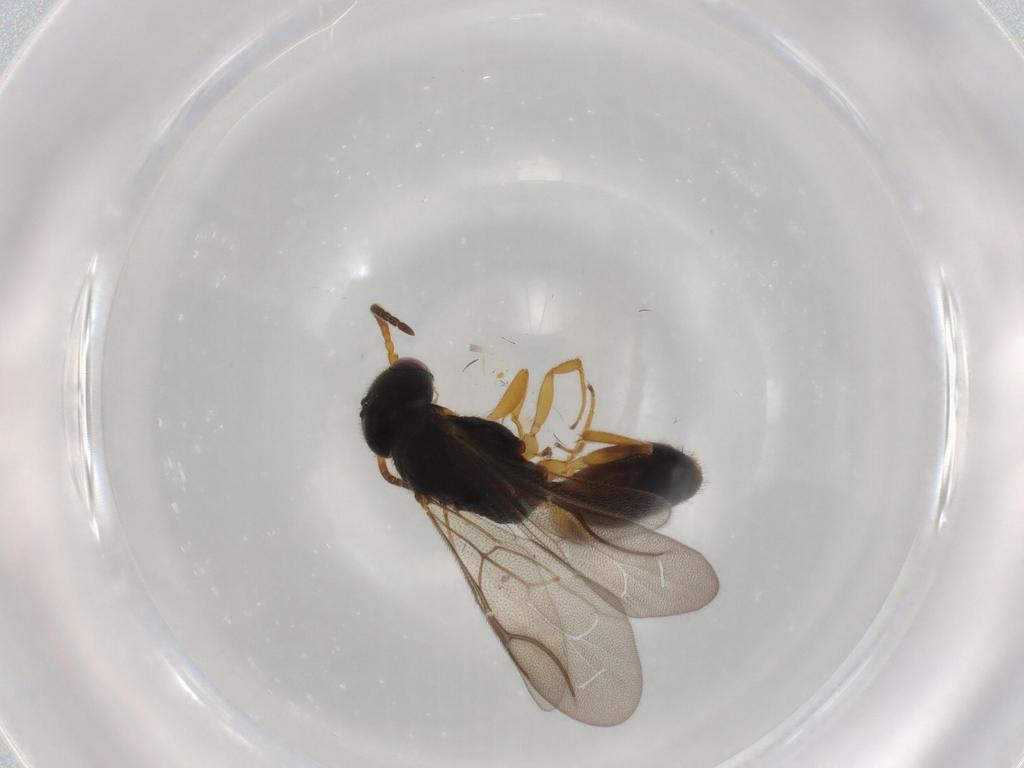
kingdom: Animalia
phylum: Arthropoda
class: Insecta
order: Hymenoptera
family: Bethylidae
